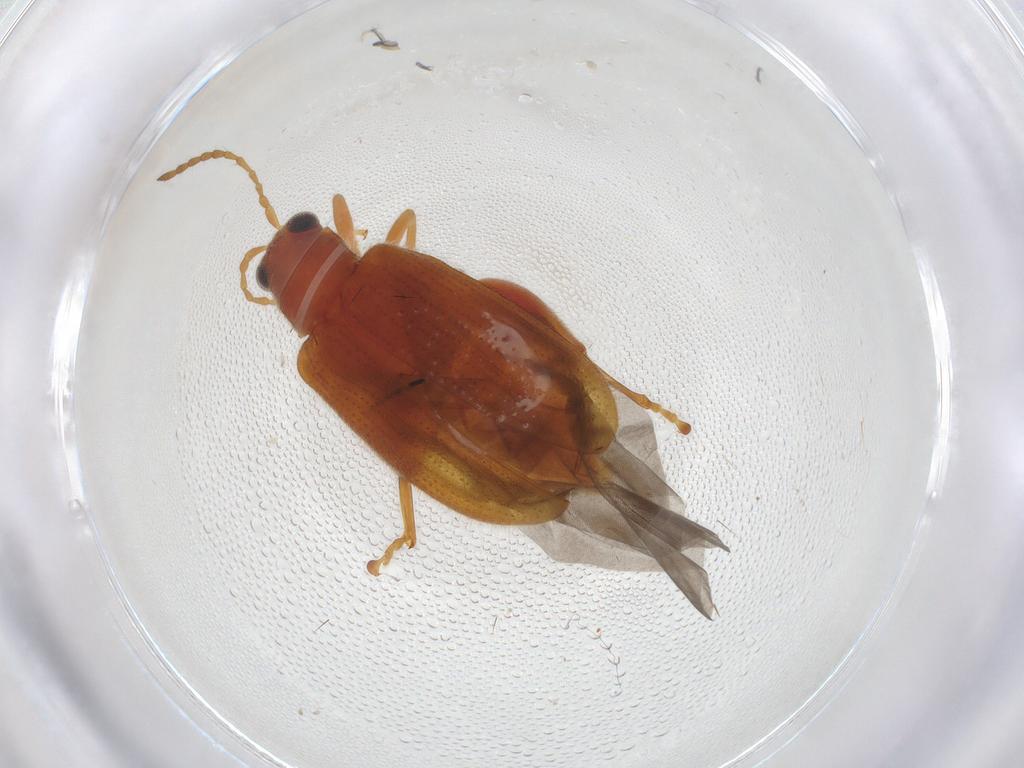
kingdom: Animalia
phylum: Arthropoda
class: Insecta
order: Coleoptera
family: Chrysomelidae
